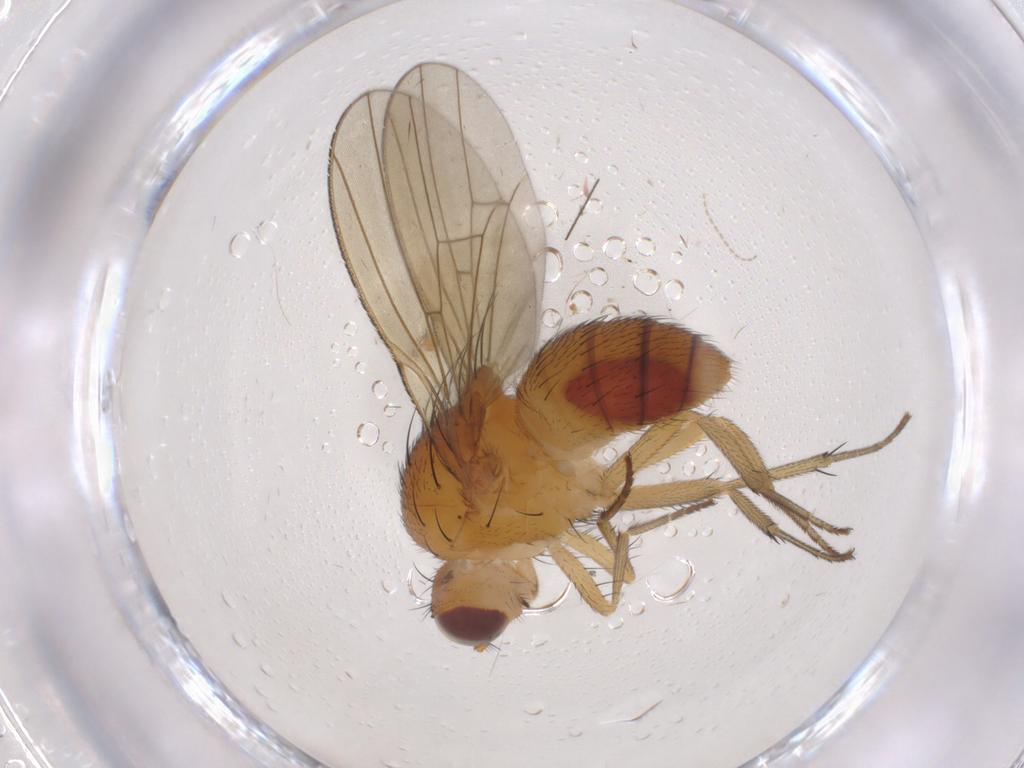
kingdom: Animalia
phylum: Arthropoda
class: Insecta
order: Diptera
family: Lauxaniidae
